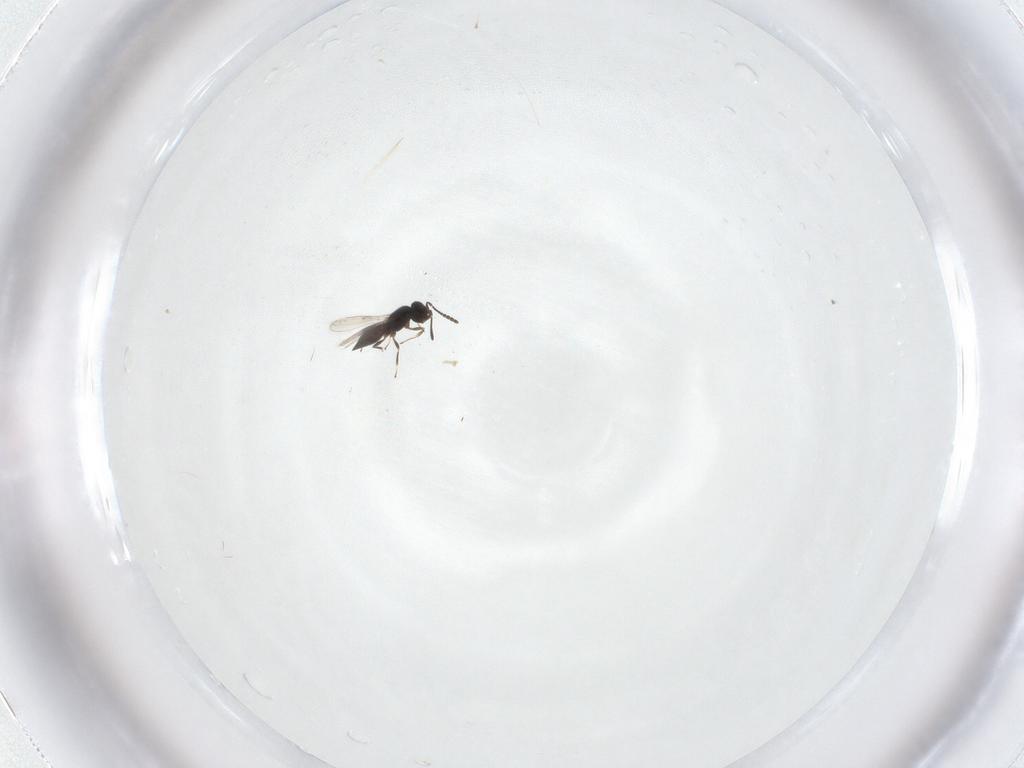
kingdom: Animalia
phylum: Arthropoda
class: Insecta
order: Hymenoptera
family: Scelionidae
